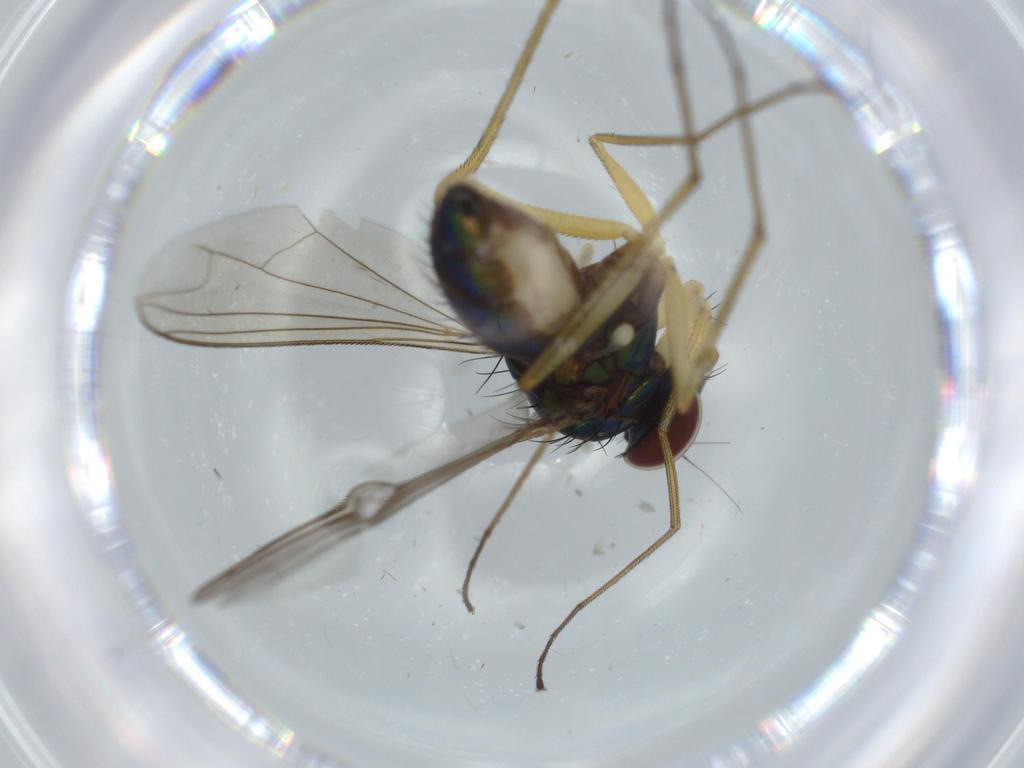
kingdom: Animalia
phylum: Arthropoda
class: Insecta
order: Diptera
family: Dolichopodidae
